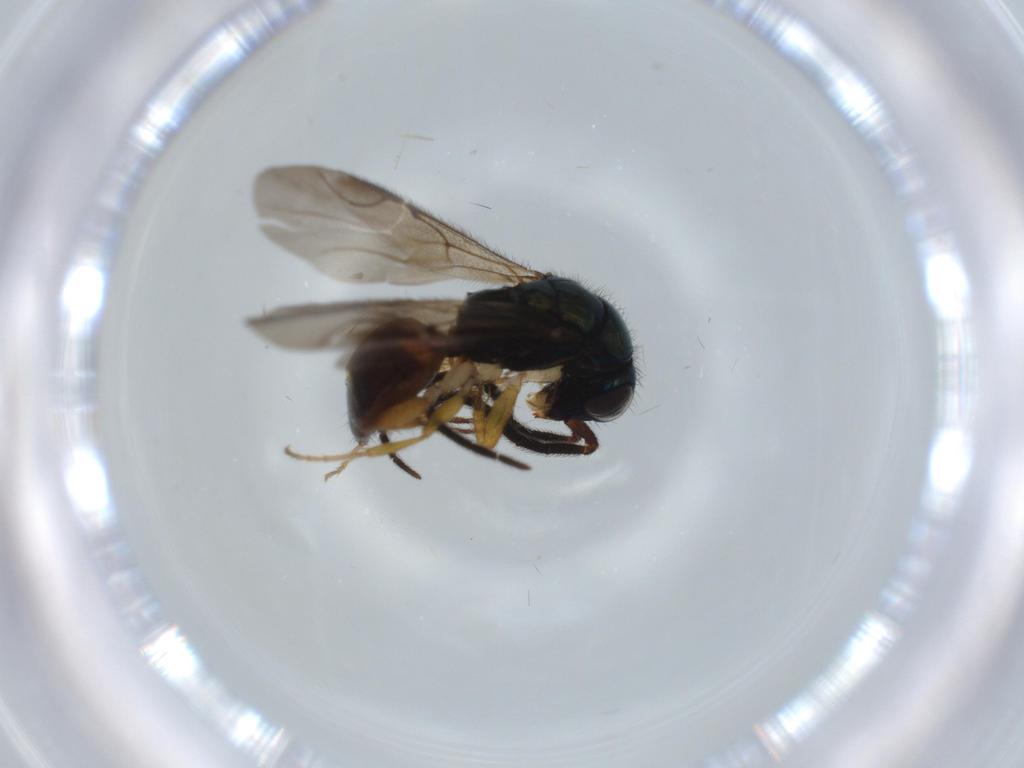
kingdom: Animalia
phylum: Arthropoda
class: Insecta
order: Hymenoptera
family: Chrysididae
